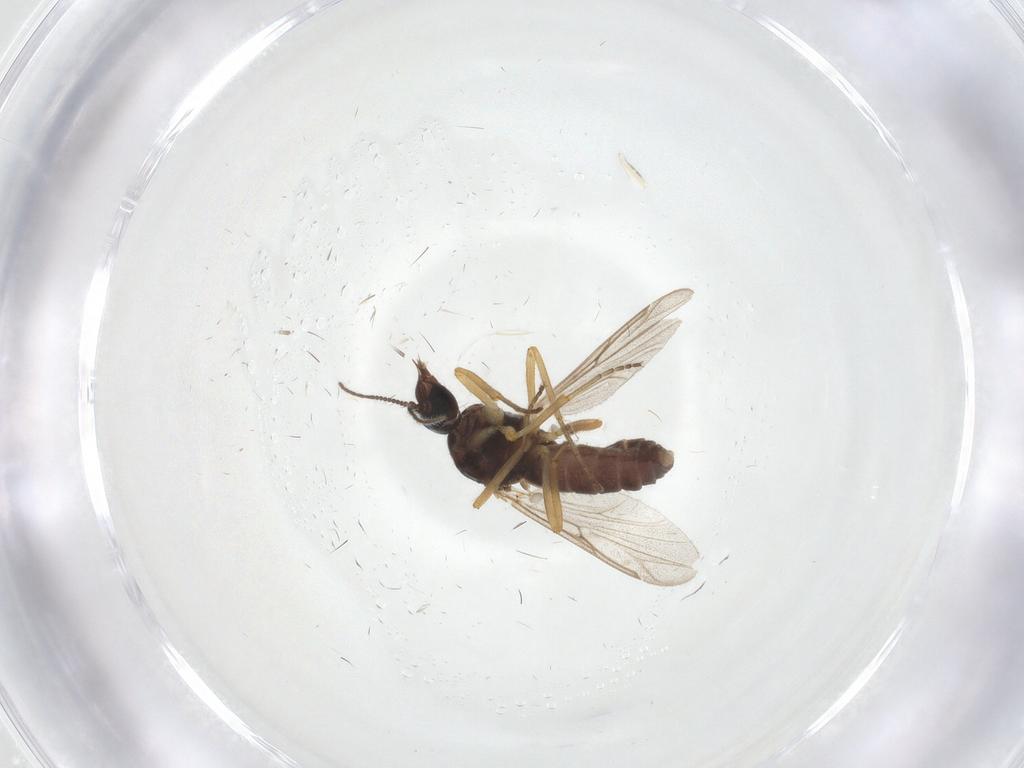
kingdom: Animalia
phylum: Arthropoda
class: Insecta
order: Diptera
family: Ceratopogonidae
